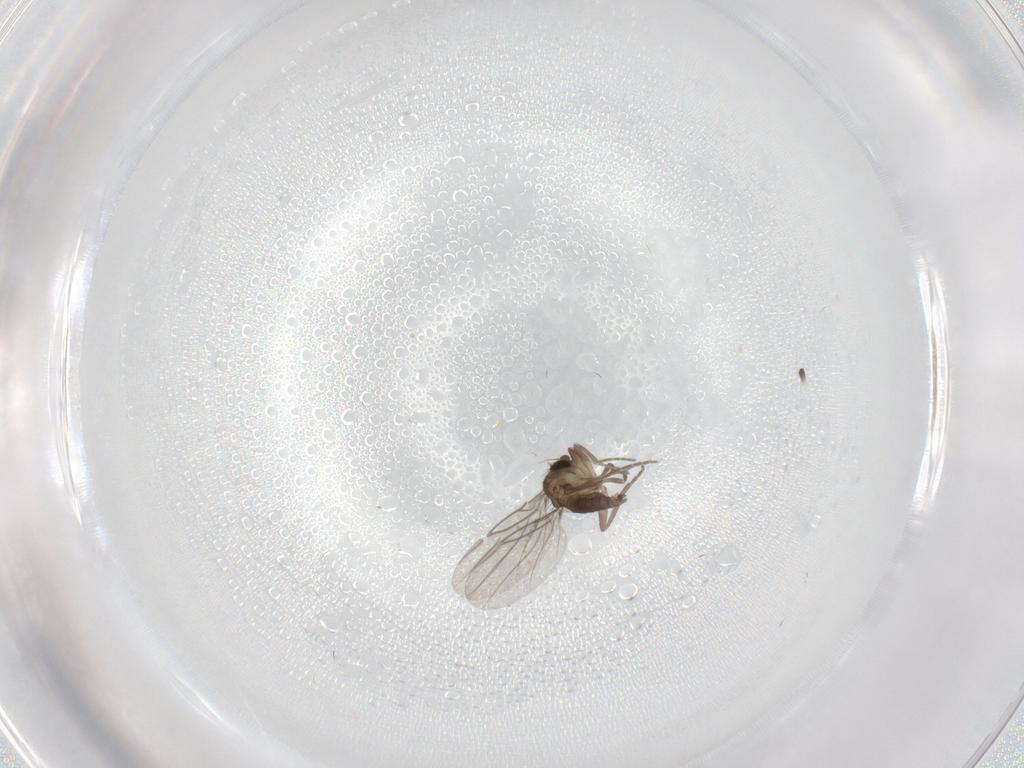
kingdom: Animalia
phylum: Arthropoda
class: Insecta
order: Diptera
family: Cecidomyiidae
